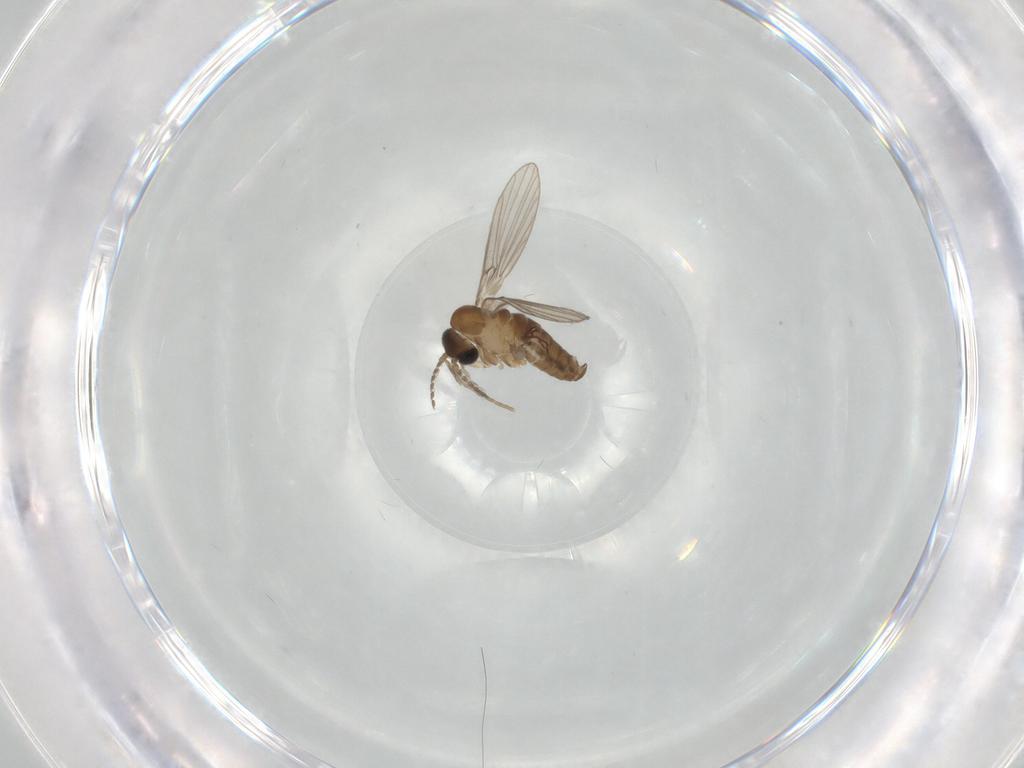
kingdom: Animalia
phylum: Arthropoda
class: Insecta
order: Diptera
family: Psychodidae
